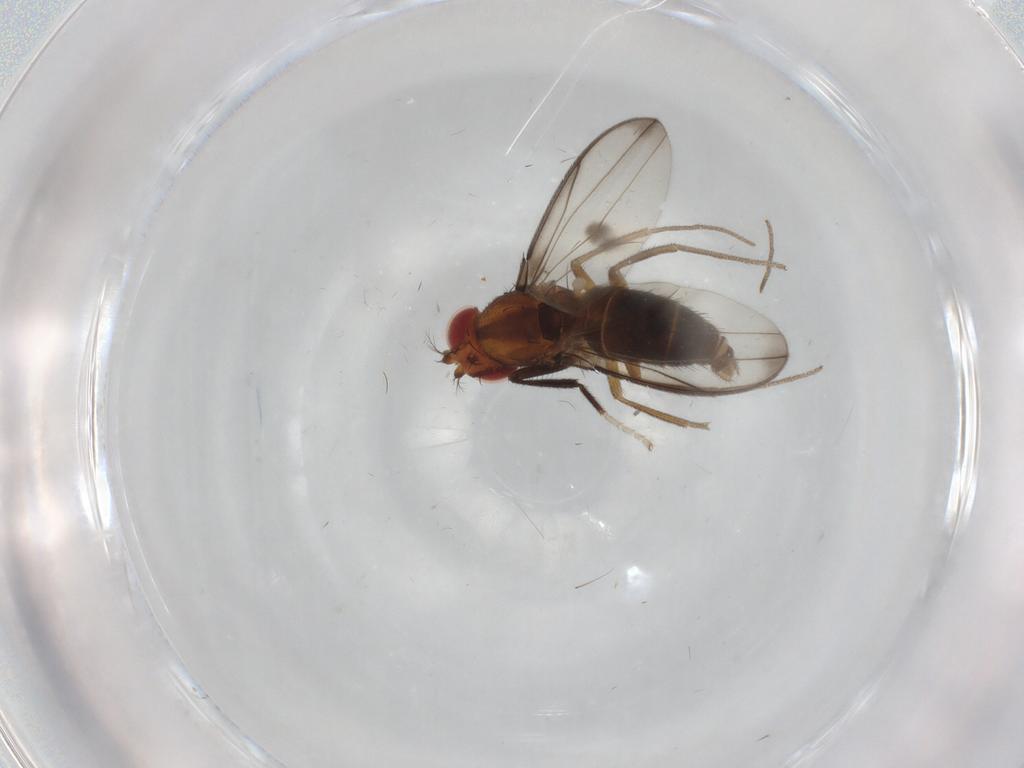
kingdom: Animalia
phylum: Arthropoda
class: Insecta
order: Diptera
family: Drosophilidae
